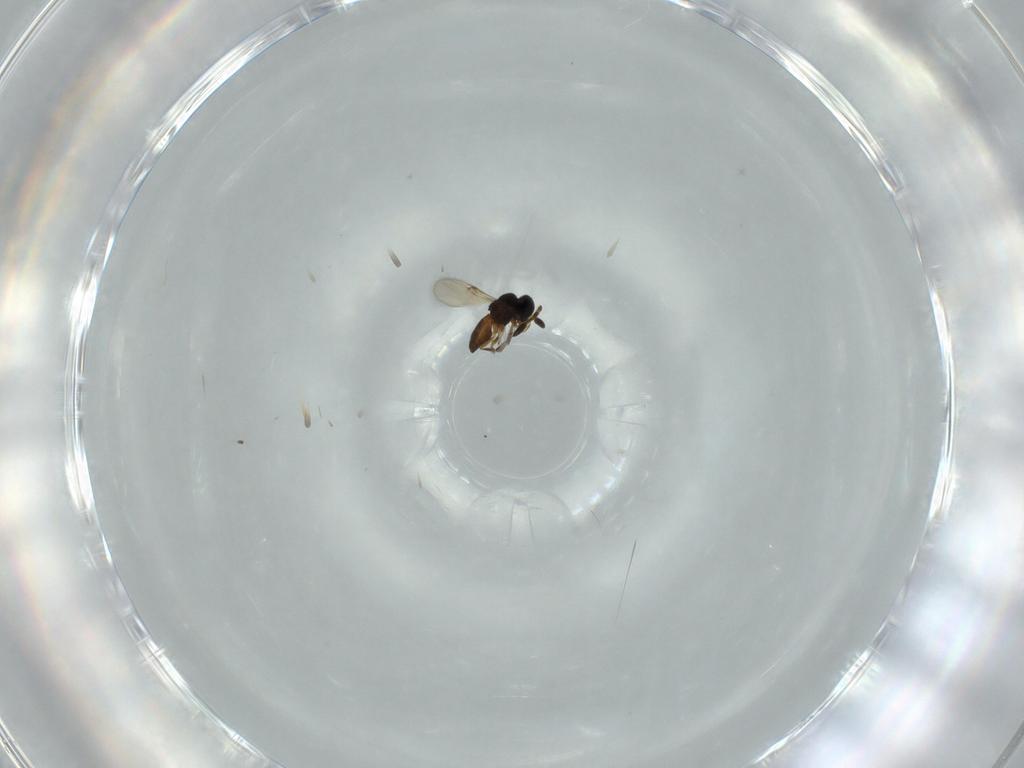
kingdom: Animalia
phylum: Arthropoda
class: Insecta
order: Hymenoptera
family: Scelionidae
